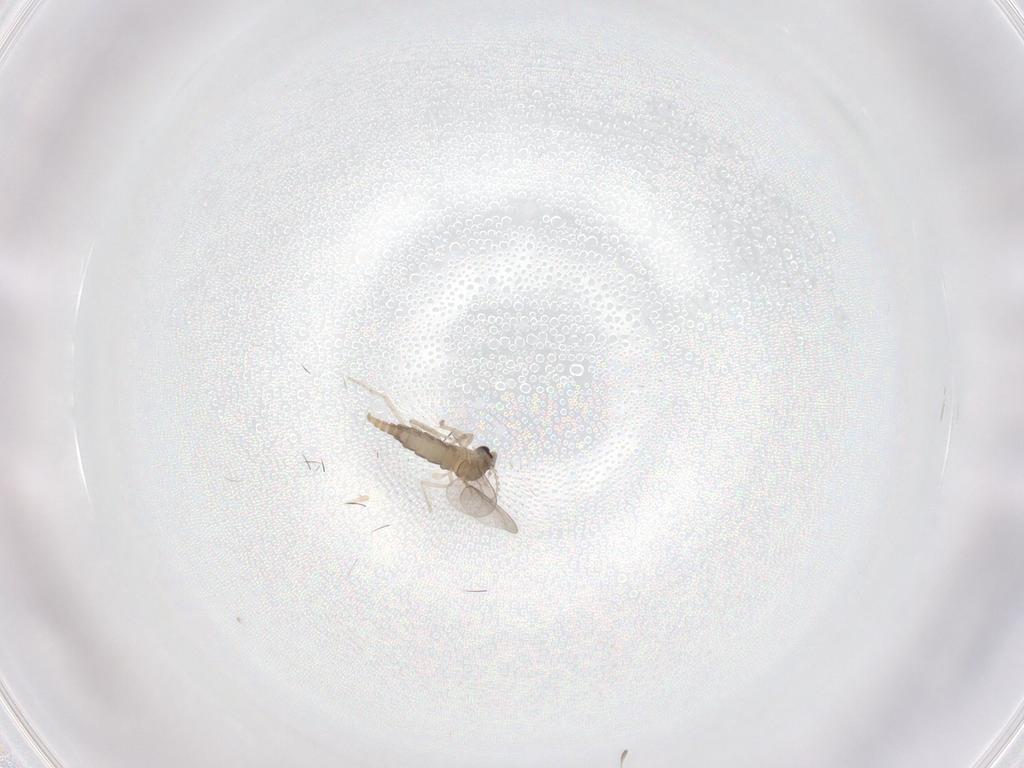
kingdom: Animalia
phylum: Arthropoda
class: Insecta
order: Diptera
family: Cecidomyiidae
